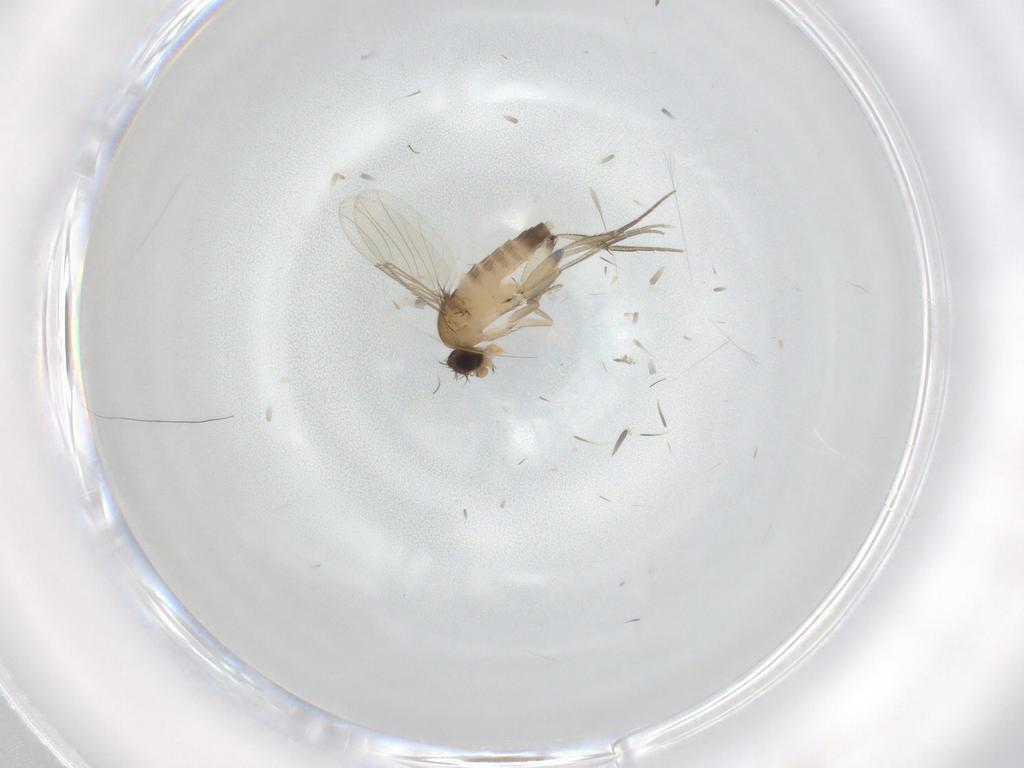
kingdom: Animalia
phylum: Arthropoda
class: Insecta
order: Diptera
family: Phoridae
